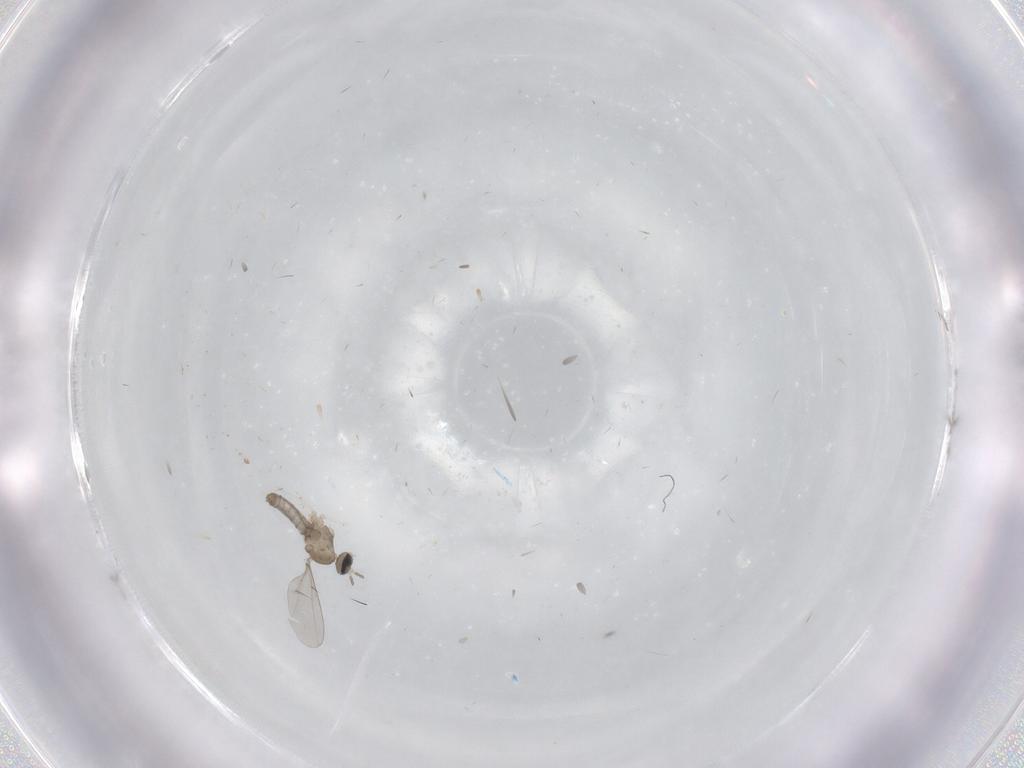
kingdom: Animalia
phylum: Arthropoda
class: Insecta
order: Diptera
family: Cecidomyiidae
